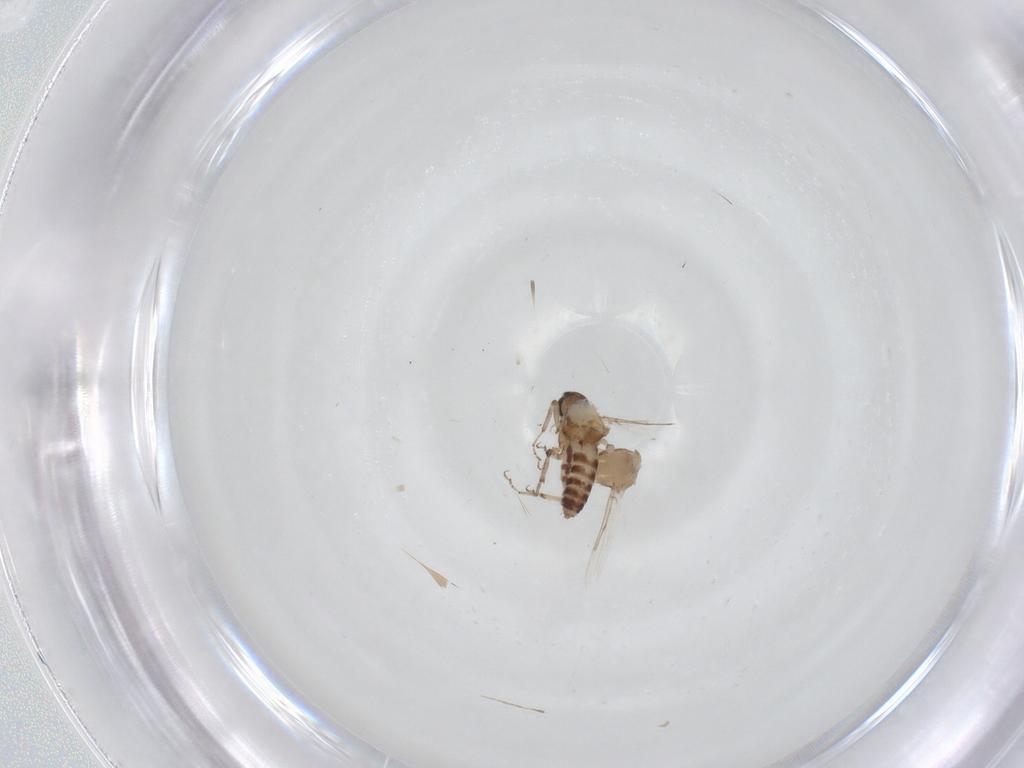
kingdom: Animalia
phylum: Arthropoda
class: Insecta
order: Diptera
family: Ceratopogonidae
